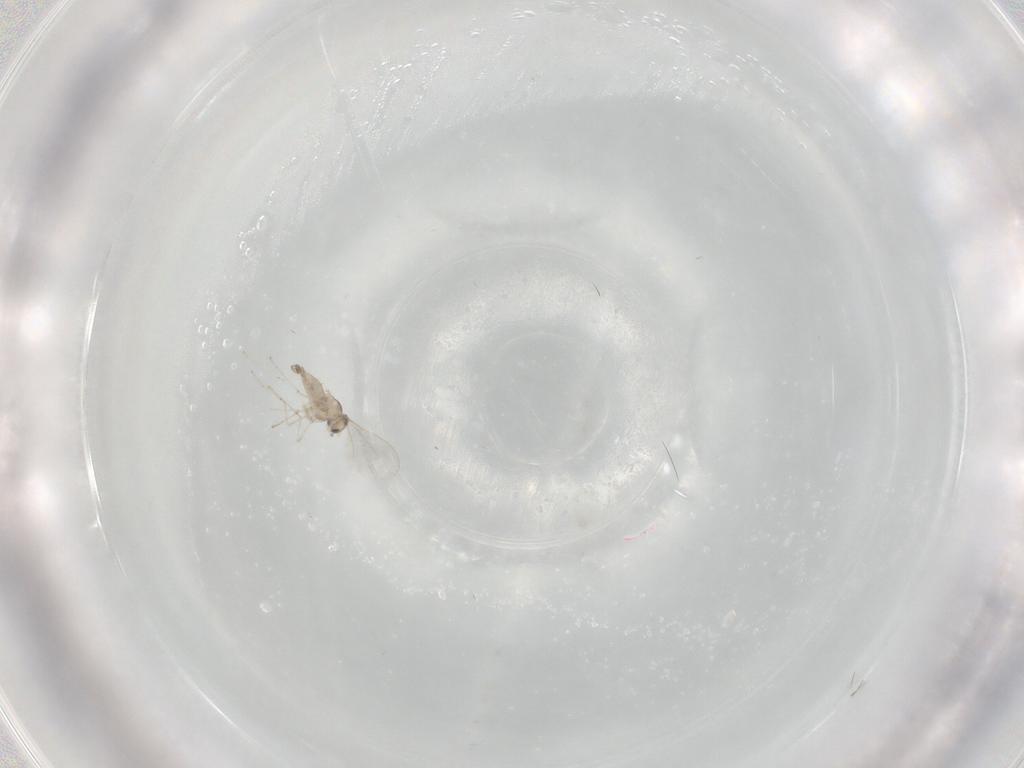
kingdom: Animalia
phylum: Arthropoda
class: Insecta
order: Diptera
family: Cecidomyiidae
